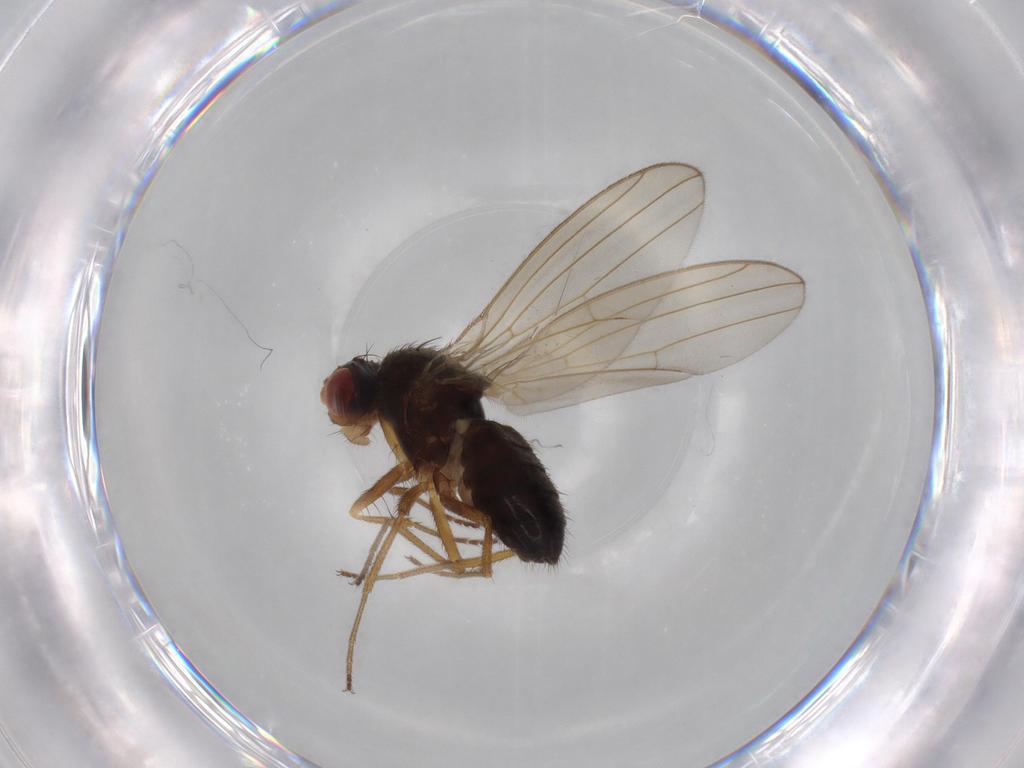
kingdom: Animalia
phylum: Arthropoda
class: Insecta
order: Diptera
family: Drosophilidae
